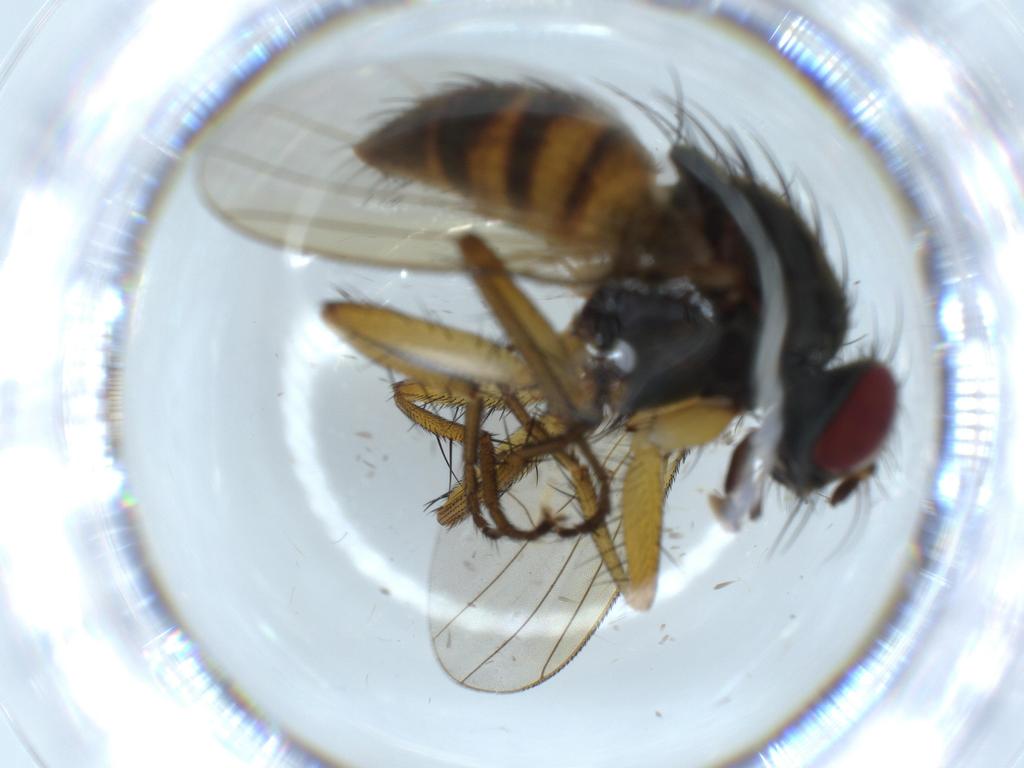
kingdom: Animalia
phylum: Arthropoda
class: Insecta
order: Diptera
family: Muscidae
